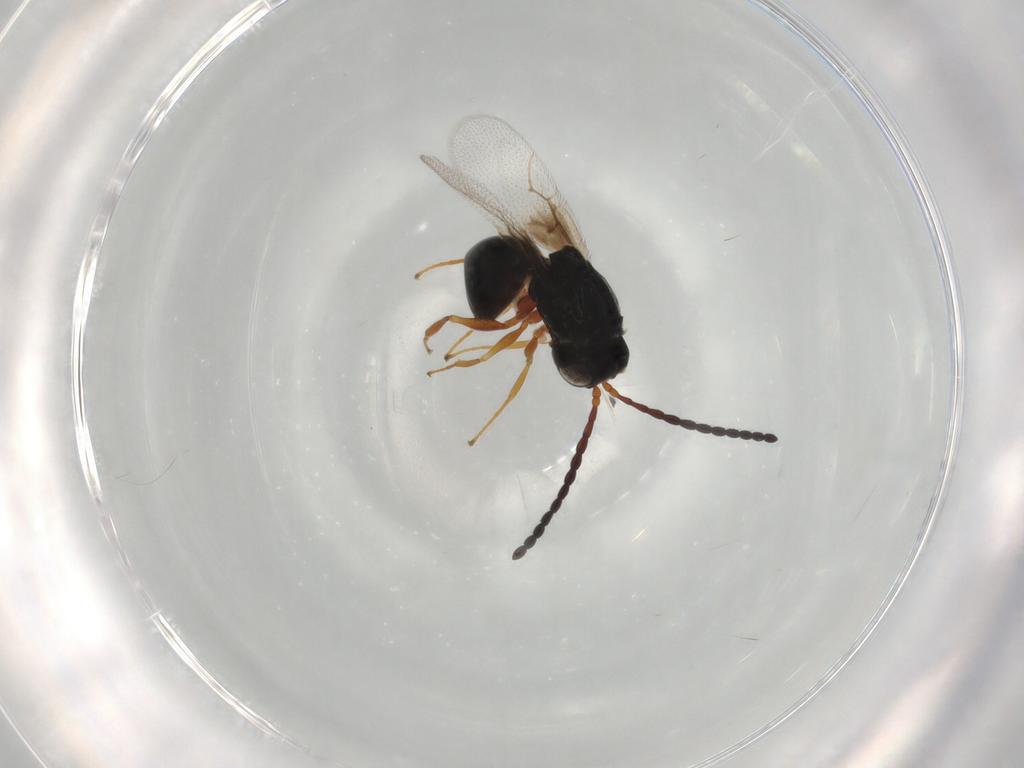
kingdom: Animalia
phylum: Arthropoda
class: Insecta
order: Hymenoptera
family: Figitidae
